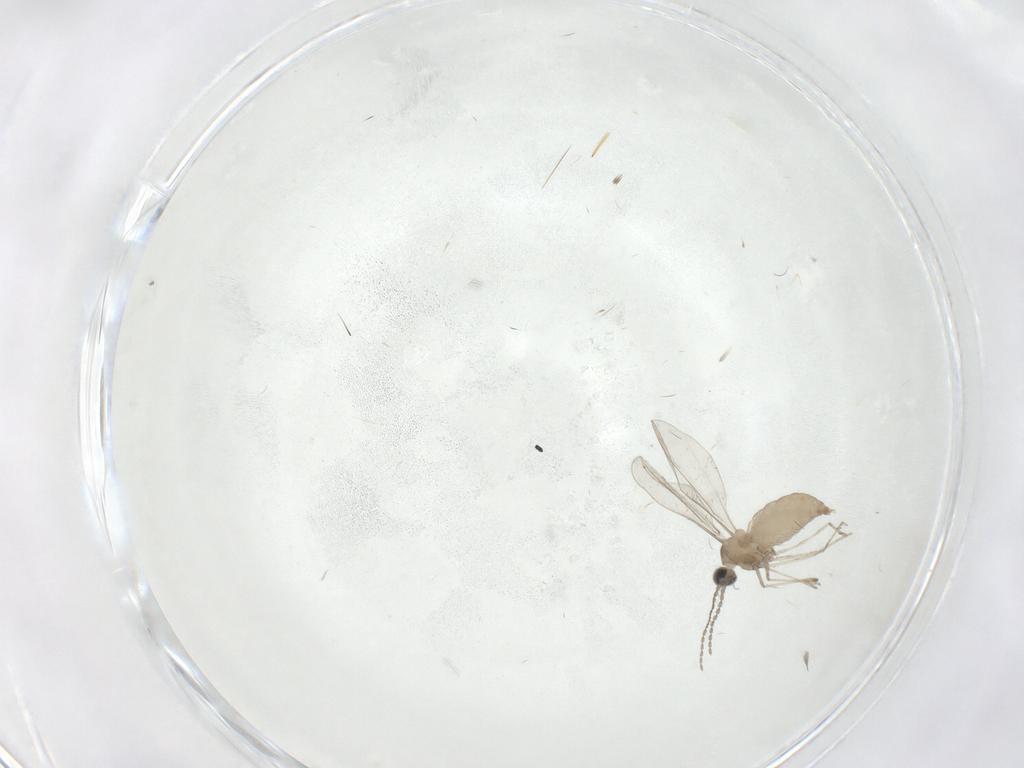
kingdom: Animalia
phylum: Arthropoda
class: Insecta
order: Diptera
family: Cecidomyiidae
